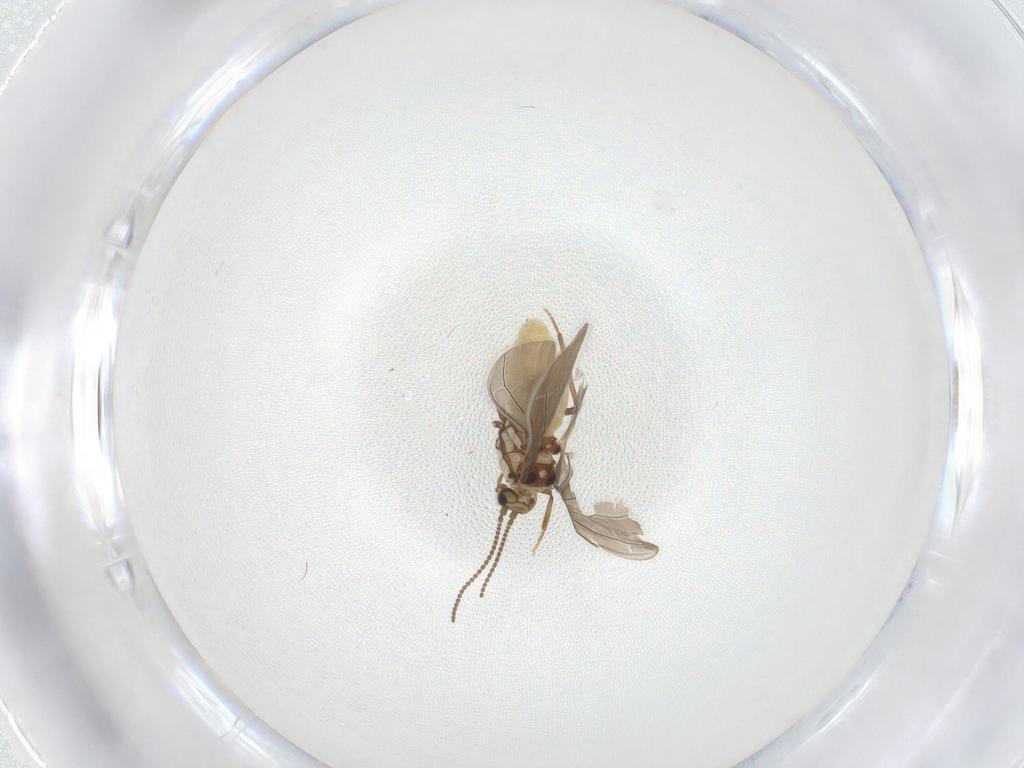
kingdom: Animalia
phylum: Arthropoda
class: Insecta
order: Neuroptera
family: Coniopterygidae
